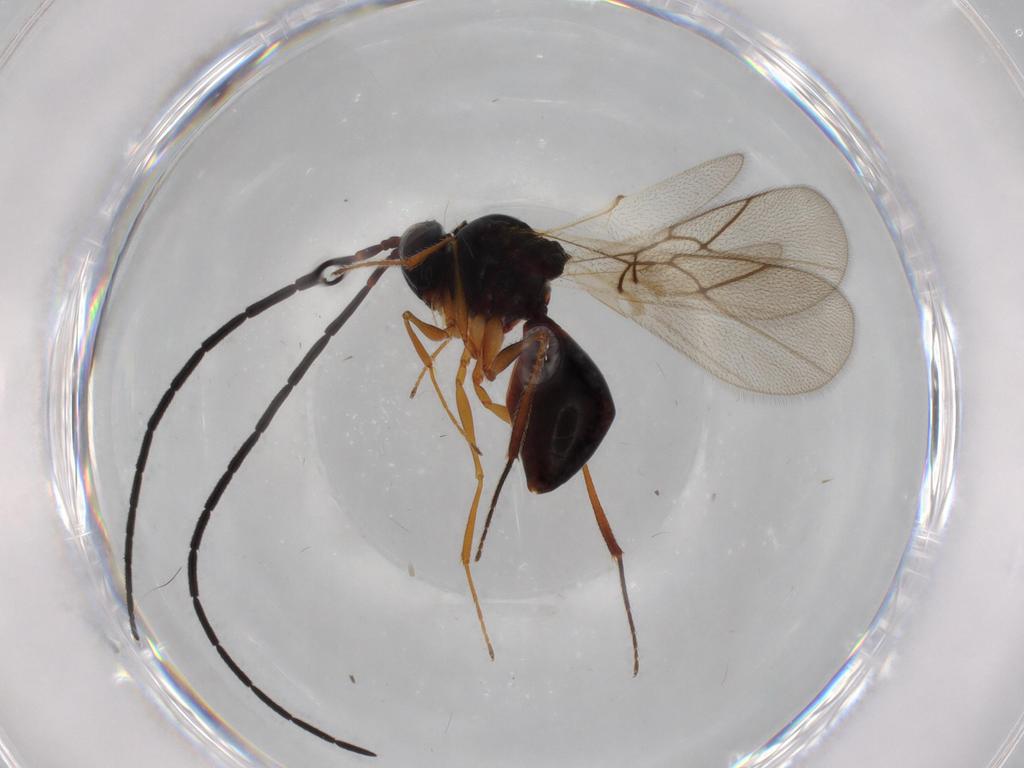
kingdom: Animalia
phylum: Arthropoda
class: Insecta
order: Hymenoptera
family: Figitidae
